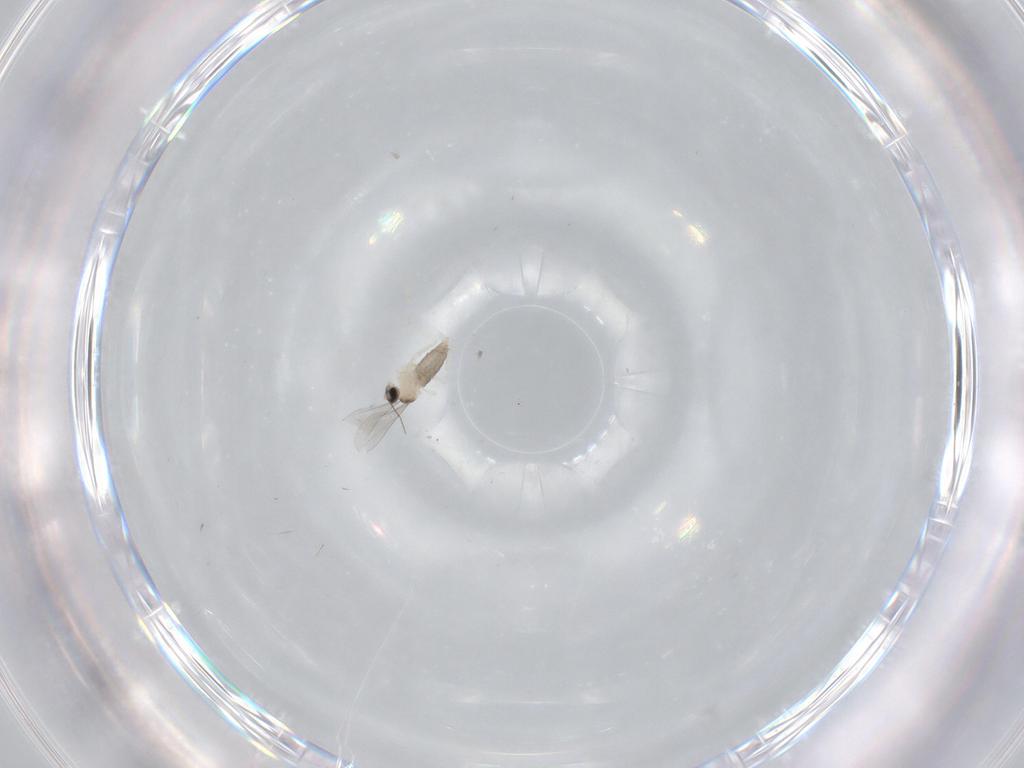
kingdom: Animalia
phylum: Arthropoda
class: Insecta
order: Diptera
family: Cecidomyiidae
